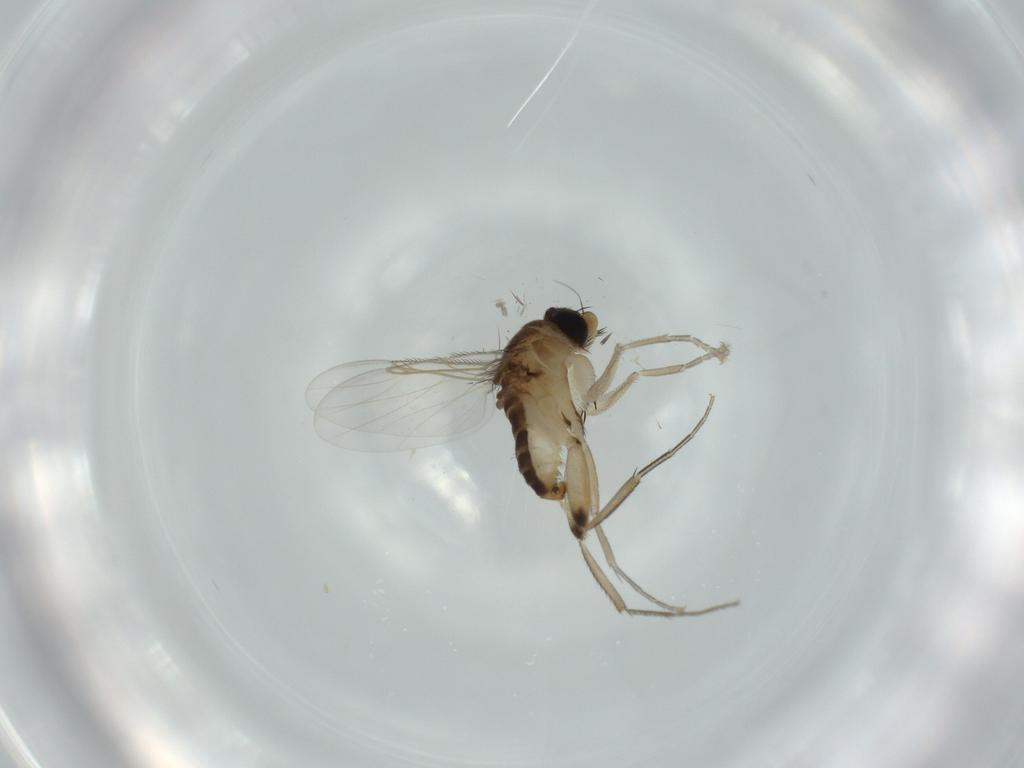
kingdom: Animalia
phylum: Arthropoda
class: Insecta
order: Diptera
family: Phoridae
